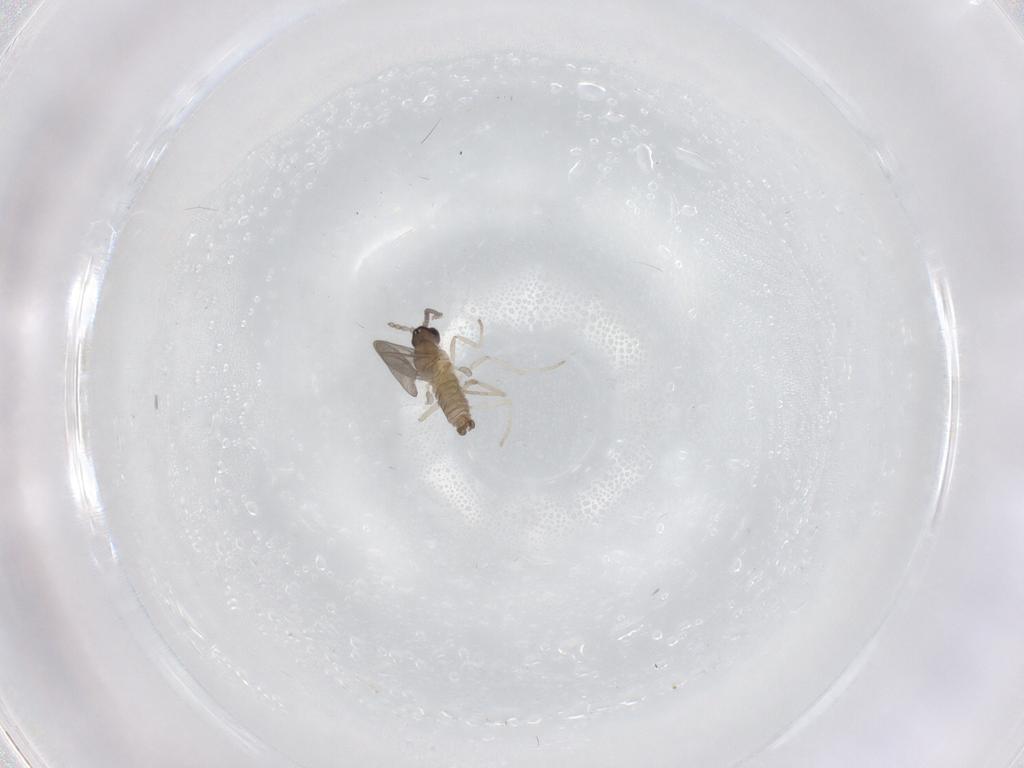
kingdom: Animalia
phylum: Arthropoda
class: Insecta
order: Diptera
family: Cecidomyiidae
